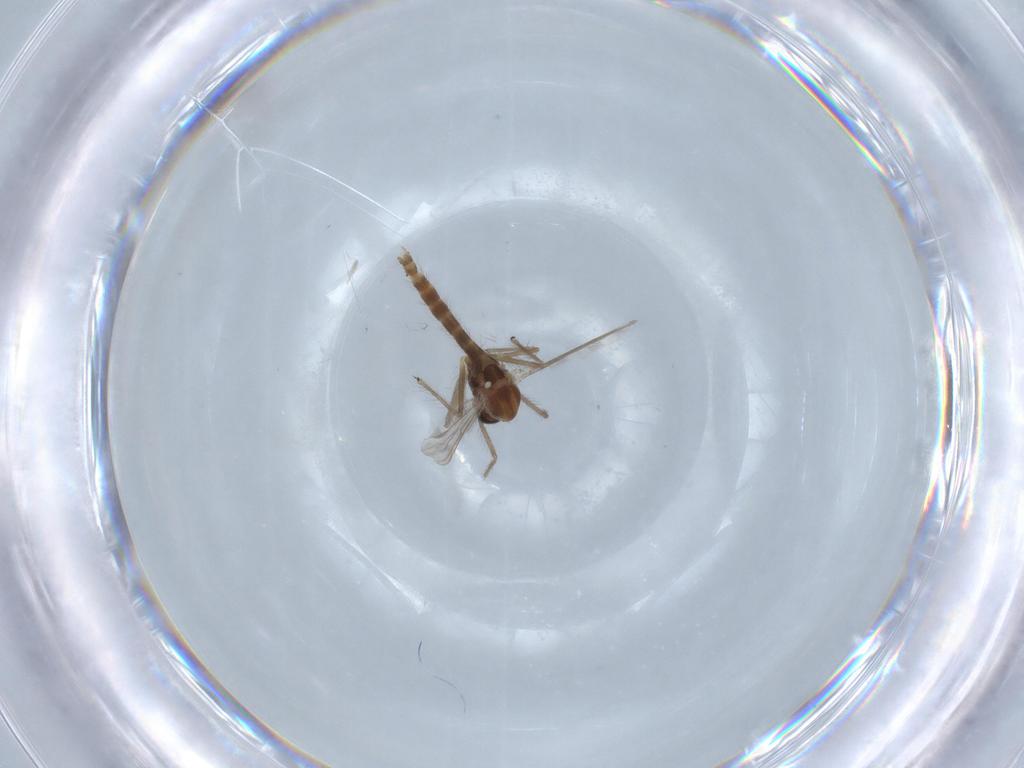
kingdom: Animalia
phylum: Arthropoda
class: Insecta
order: Diptera
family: Chironomidae
